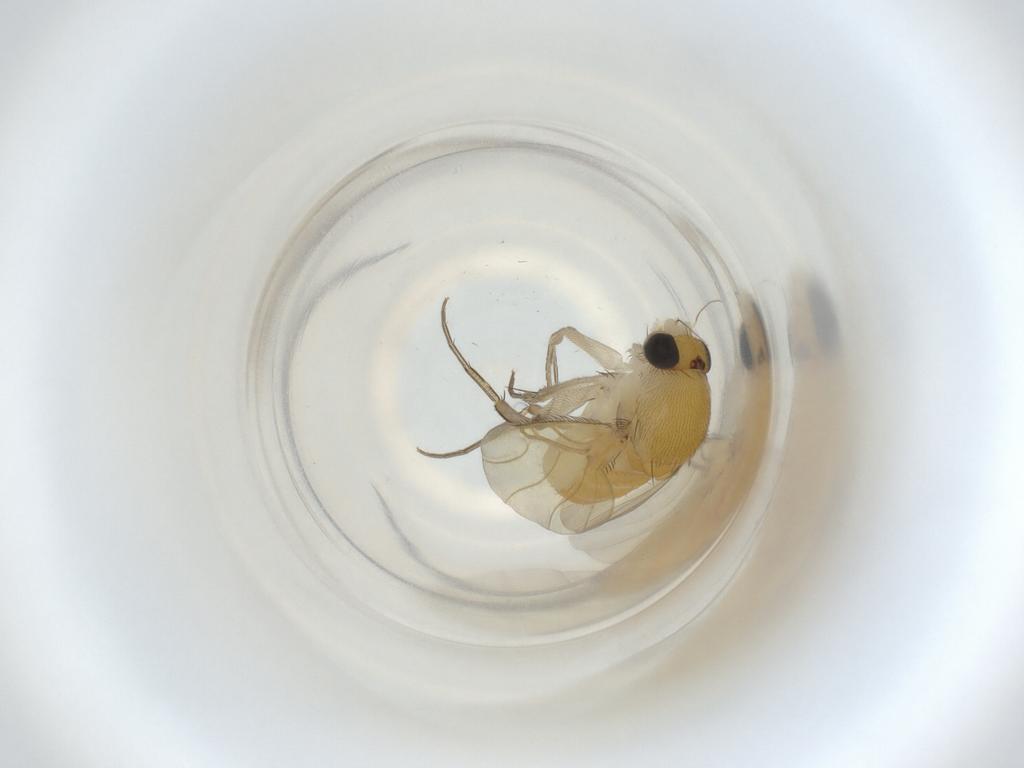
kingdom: Animalia
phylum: Arthropoda
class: Insecta
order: Diptera
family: Phoridae
